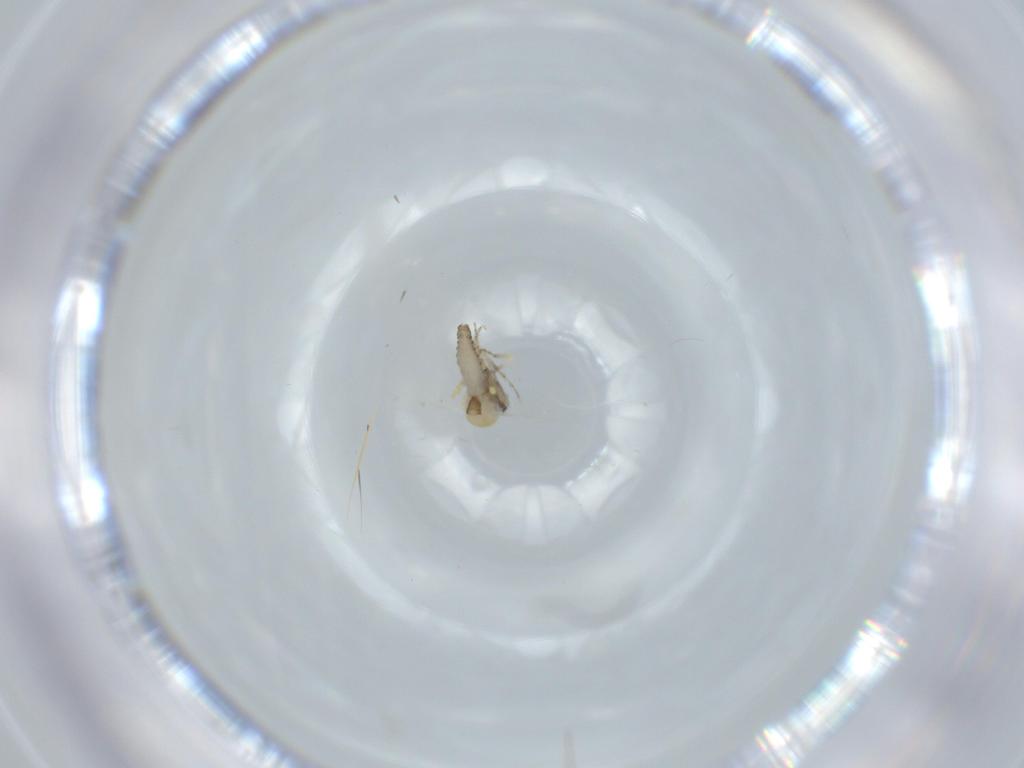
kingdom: Animalia
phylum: Arthropoda
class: Insecta
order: Diptera
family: Ceratopogonidae
